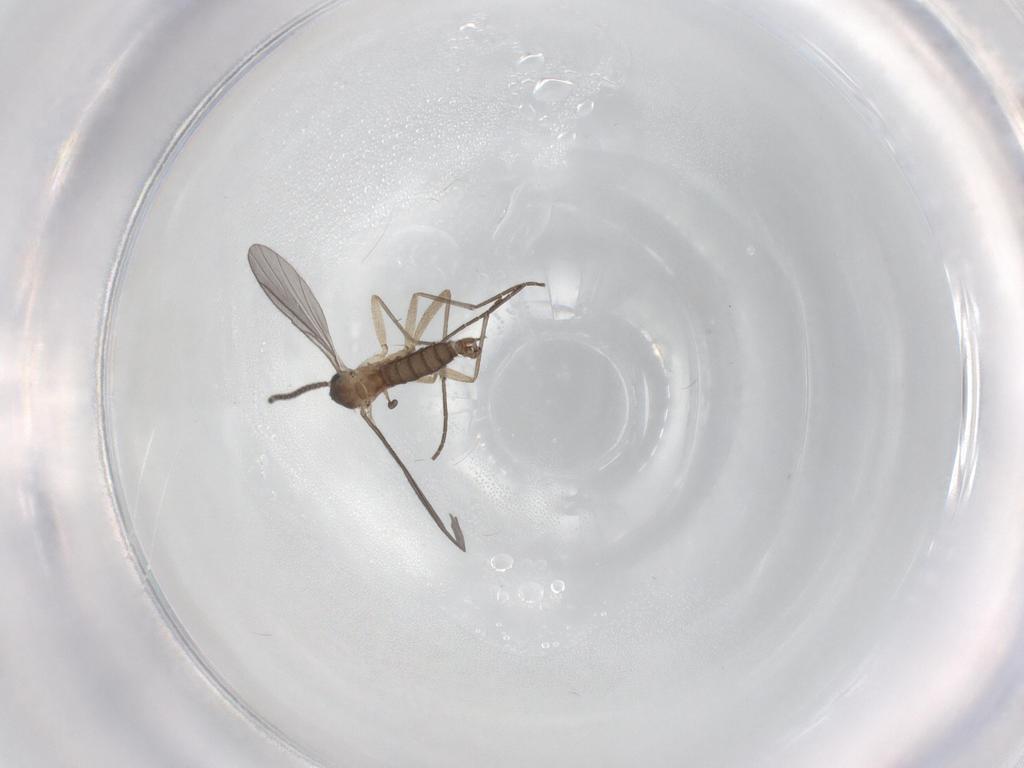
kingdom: Animalia
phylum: Arthropoda
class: Insecta
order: Diptera
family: Sciaridae
